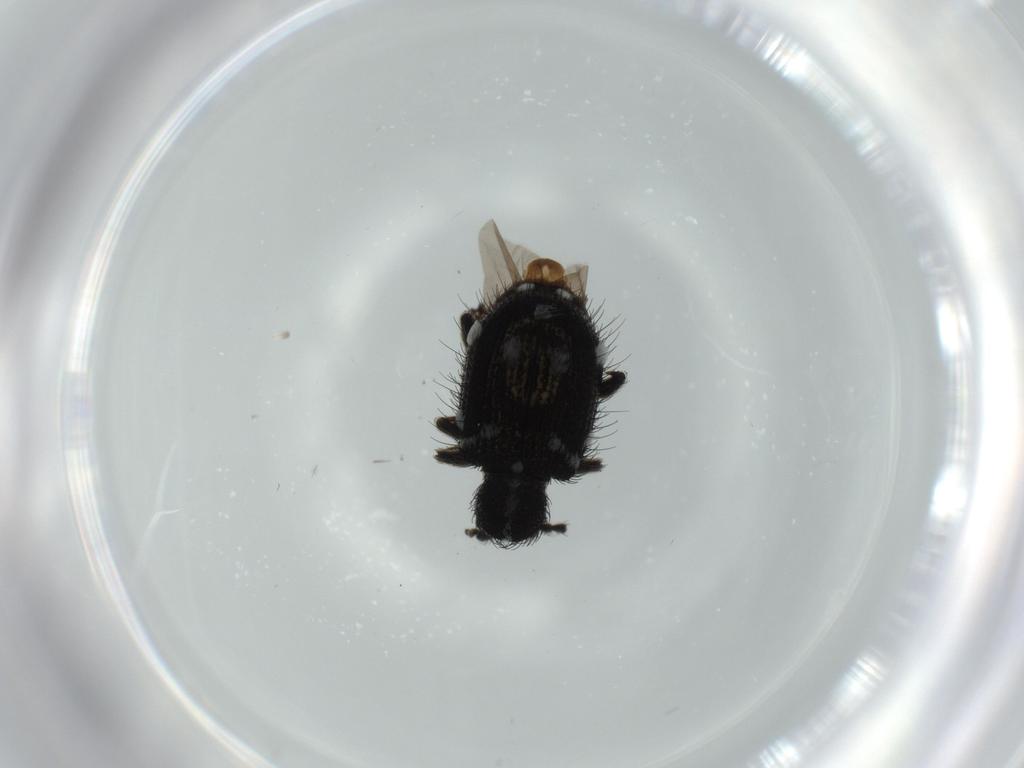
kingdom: Animalia
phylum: Arthropoda
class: Insecta
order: Coleoptera
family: Ptinidae
